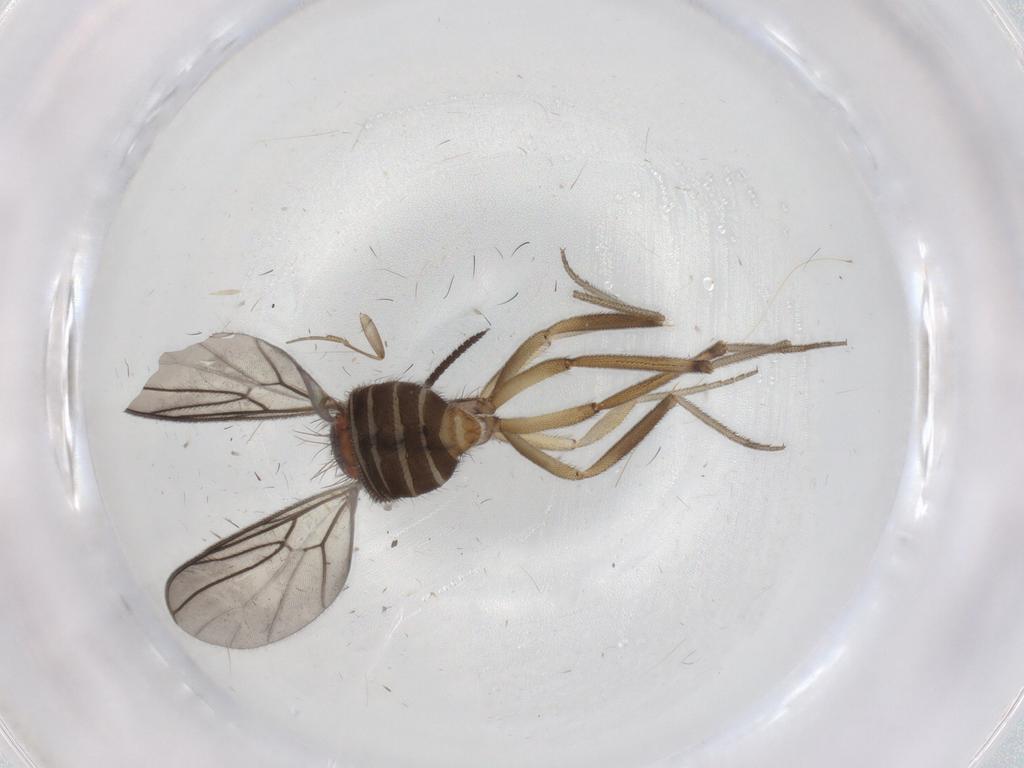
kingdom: Animalia
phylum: Arthropoda
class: Insecta
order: Diptera
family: Anisopodidae
